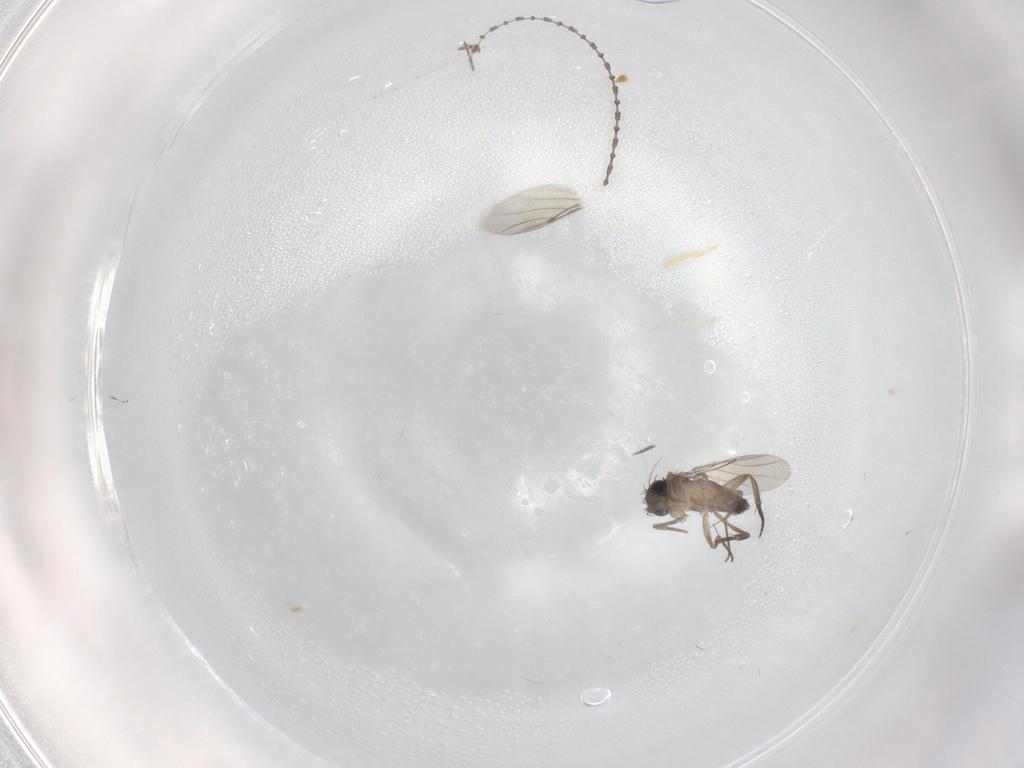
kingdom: Animalia
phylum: Arthropoda
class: Insecta
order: Diptera
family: Phoridae
